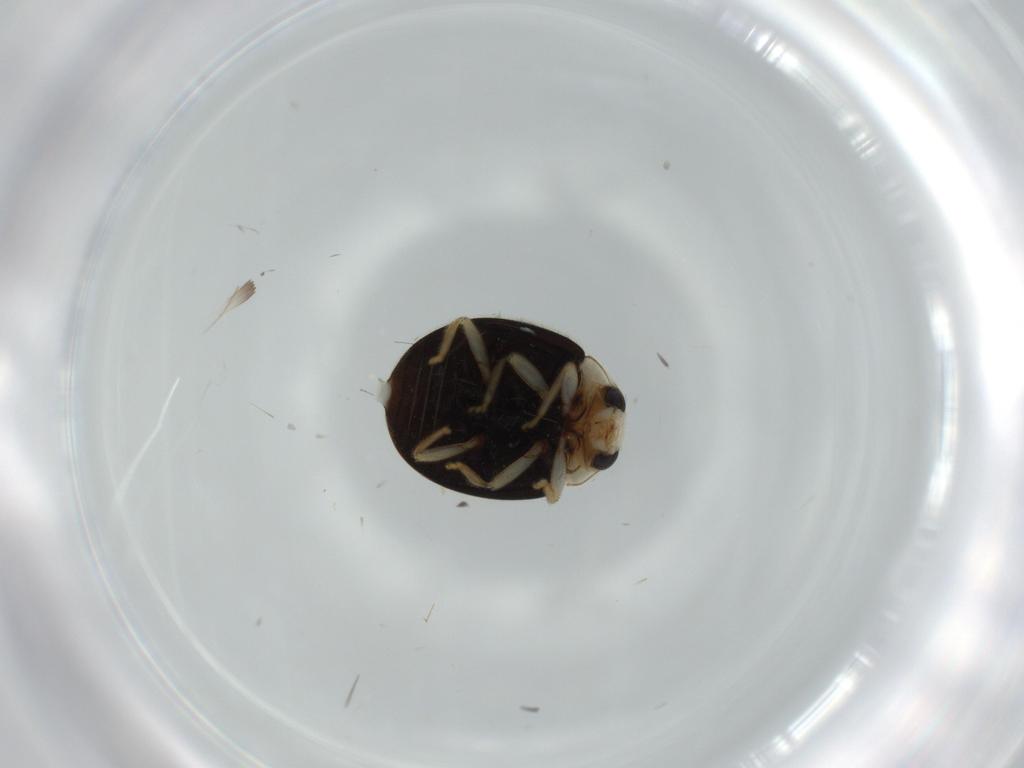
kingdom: Animalia
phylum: Arthropoda
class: Insecta
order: Coleoptera
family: Coccinellidae
